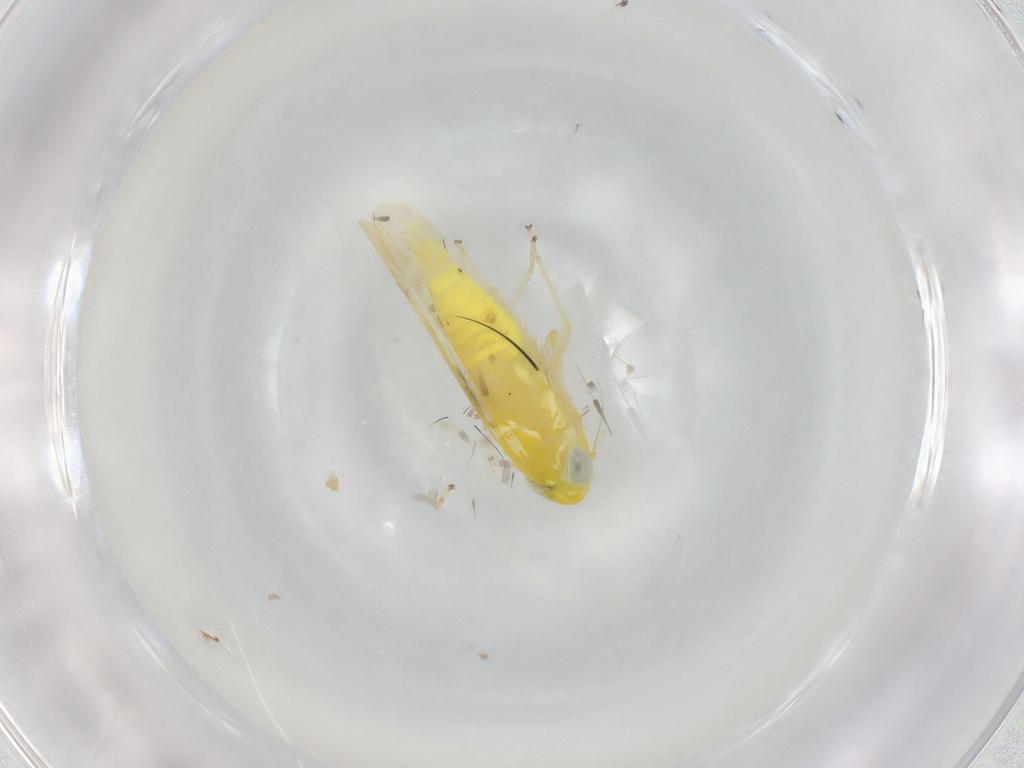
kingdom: Animalia
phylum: Arthropoda
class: Insecta
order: Hemiptera
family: Cicadellidae
